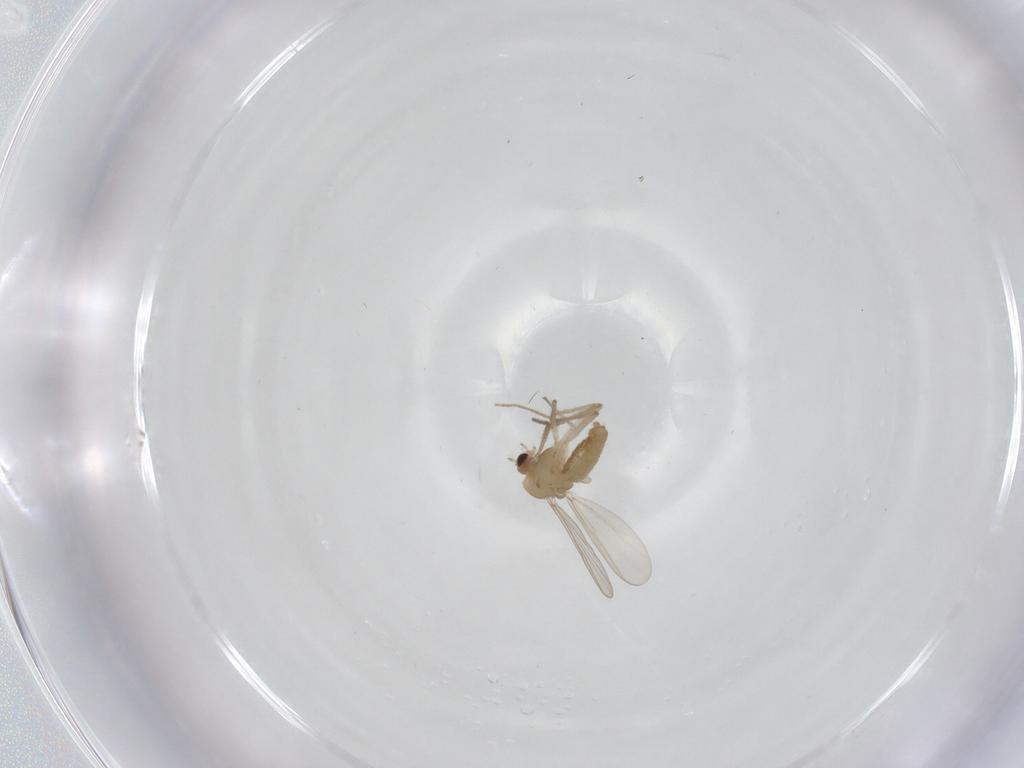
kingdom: Animalia
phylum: Arthropoda
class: Insecta
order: Diptera
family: Chironomidae
